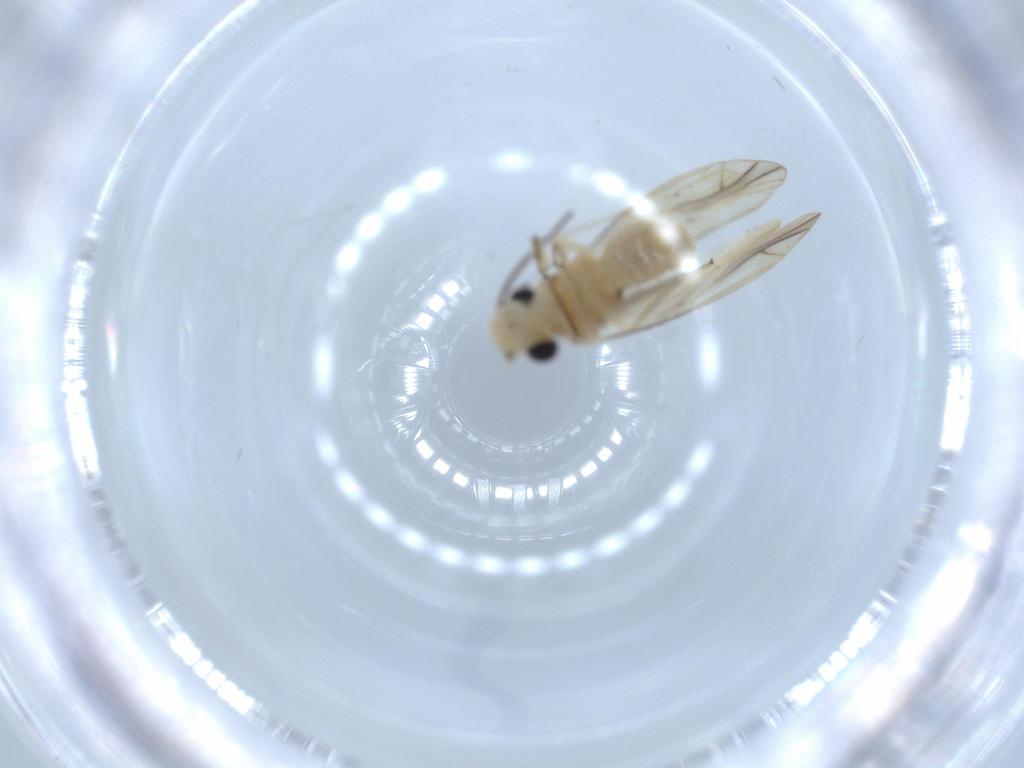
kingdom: Animalia
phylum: Arthropoda
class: Insecta
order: Psocodea
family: Caeciliusidae
